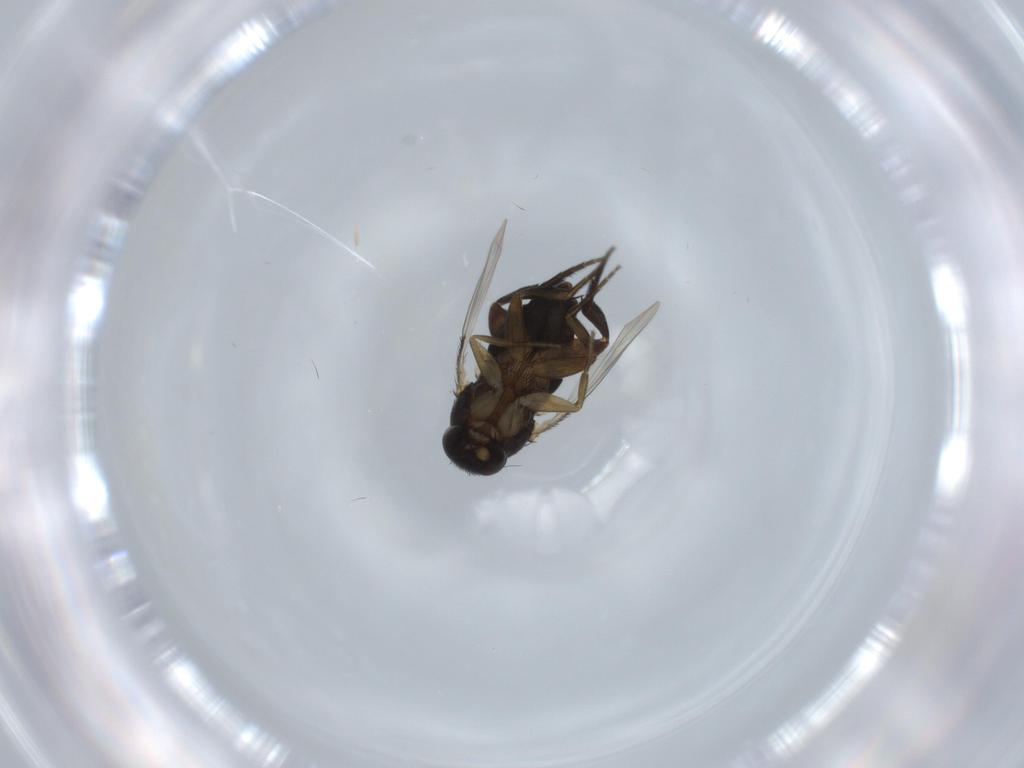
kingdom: Animalia
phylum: Arthropoda
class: Insecta
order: Diptera
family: Phoridae
